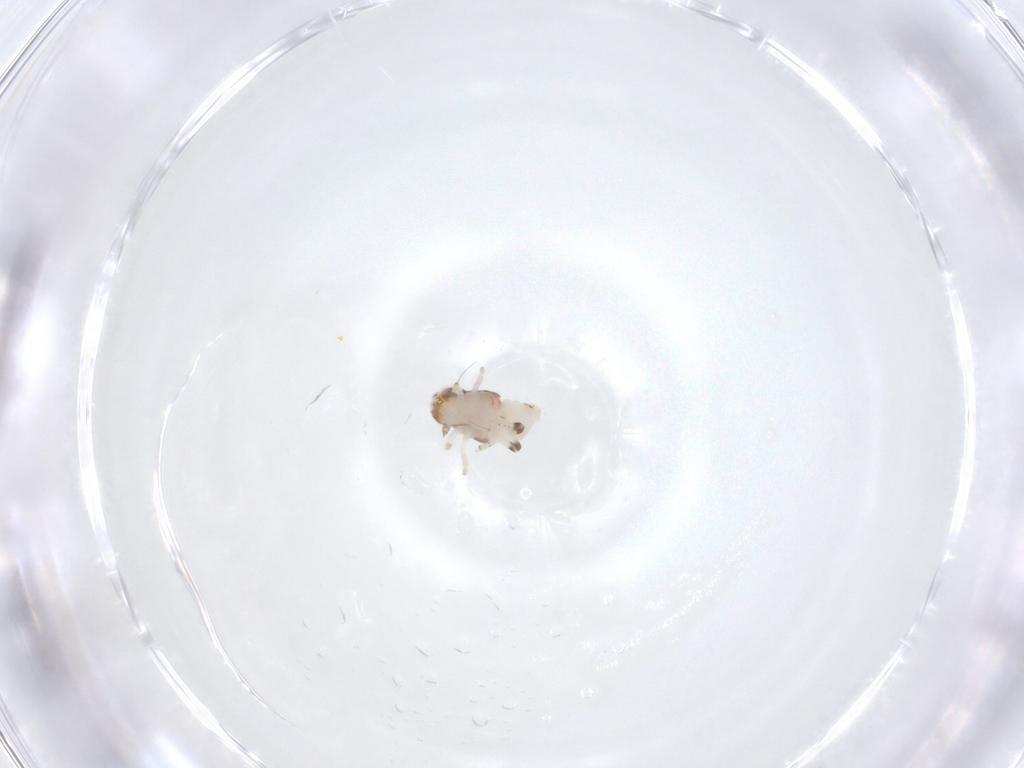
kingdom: Animalia
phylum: Arthropoda
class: Insecta
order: Hemiptera
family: Nogodinidae
